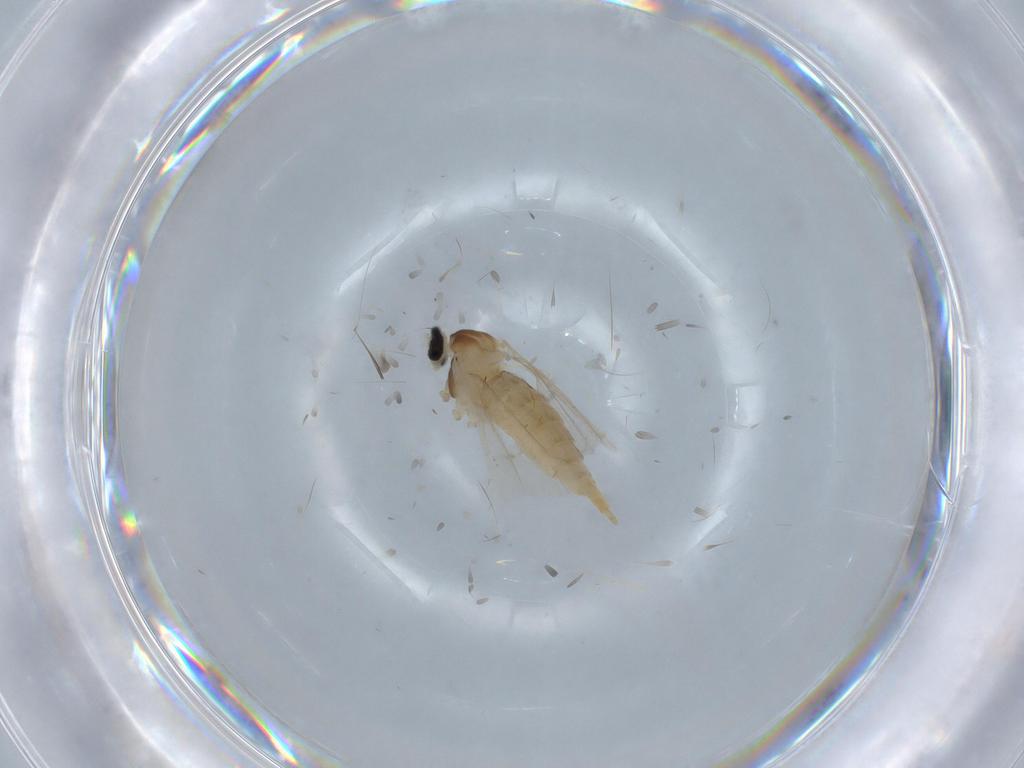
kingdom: Animalia
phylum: Arthropoda
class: Insecta
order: Diptera
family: Cecidomyiidae
